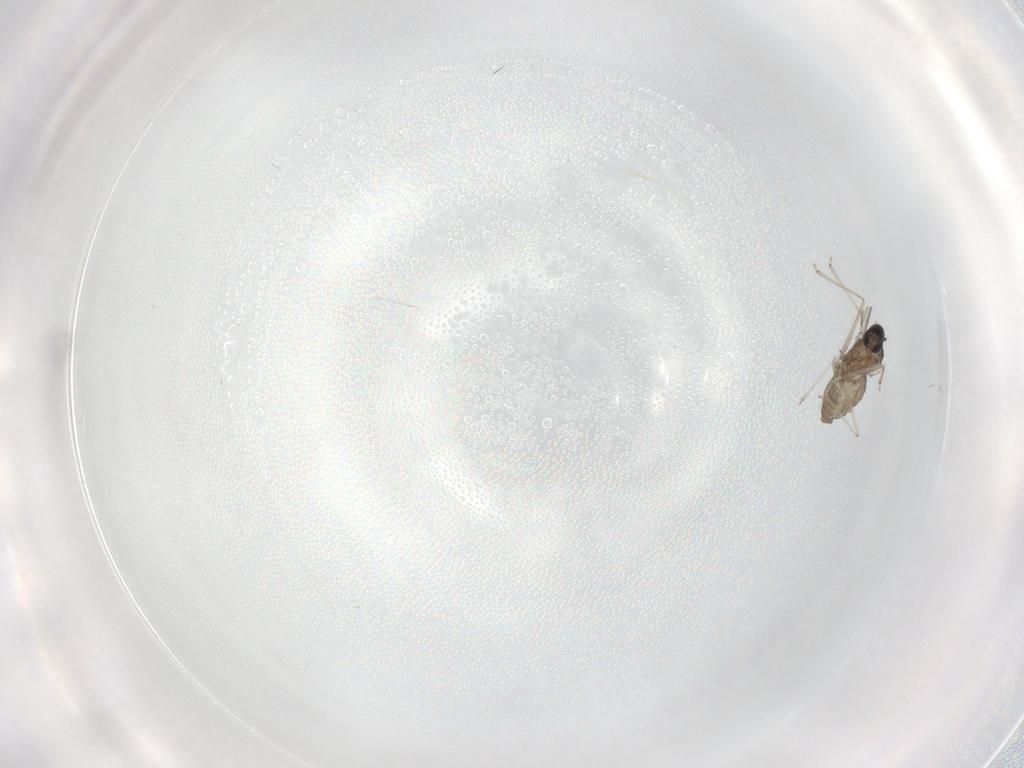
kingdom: Animalia
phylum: Arthropoda
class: Insecta
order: Diptera
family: Cecidomyiidae
